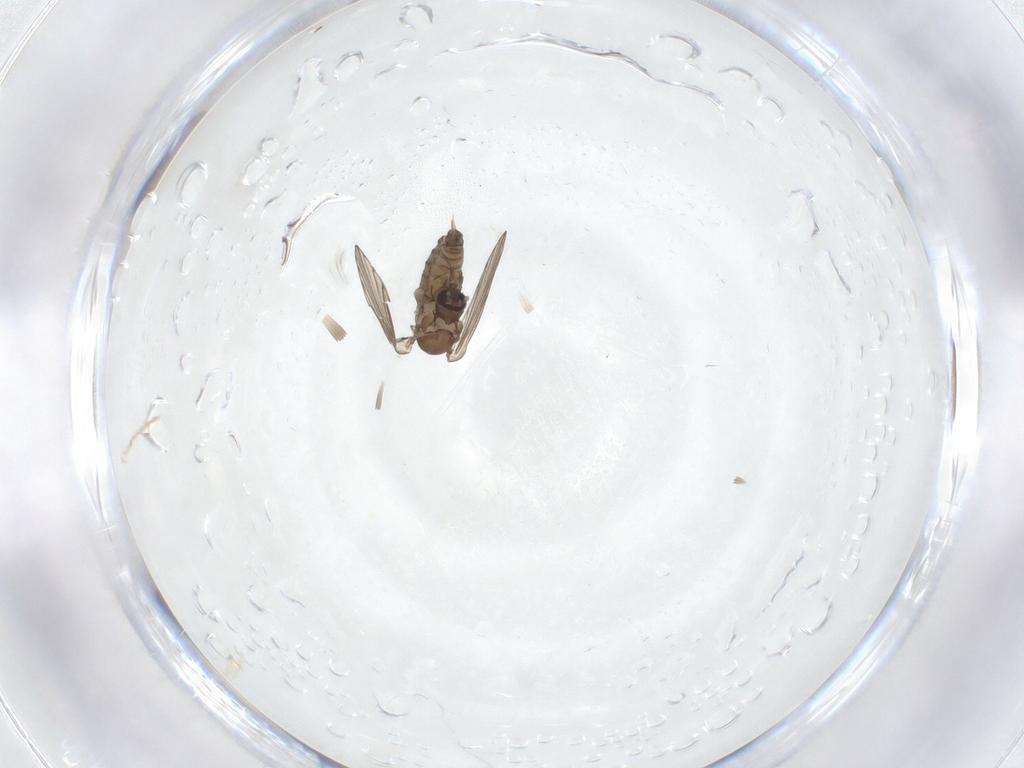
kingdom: Animalia
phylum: Arthropoda
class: Insecta
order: Diptera
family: Psychodidae
